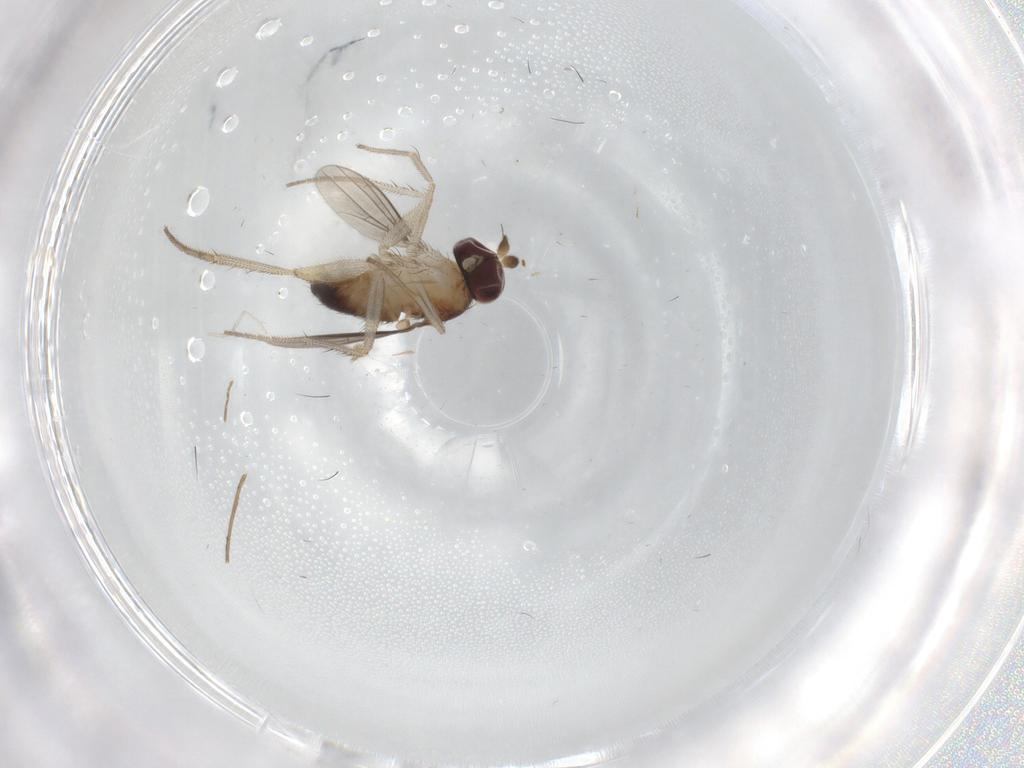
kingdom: Animalia
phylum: Arthropoda
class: Insecta
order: Diptera
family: Dolichopodidae
